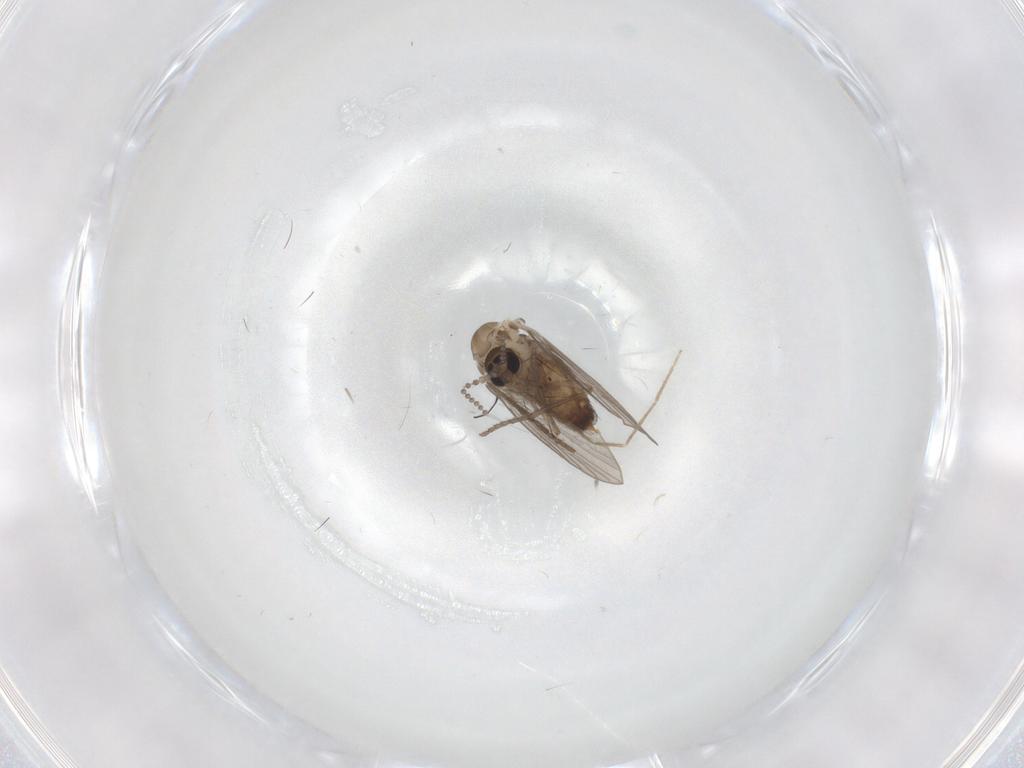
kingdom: Animalia
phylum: Arthropoda
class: Insecta
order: Diptera
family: Psychodidae
